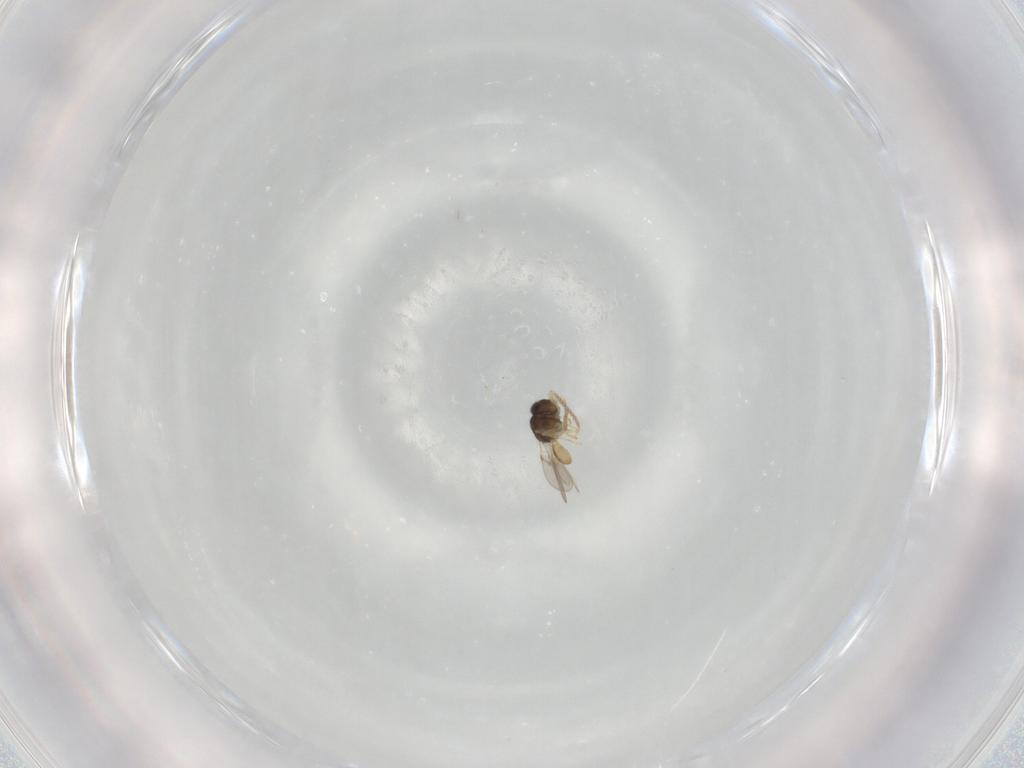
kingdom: Animalia
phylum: Arthropoda
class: Insecta
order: Hymenoptera
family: Scelionidae
